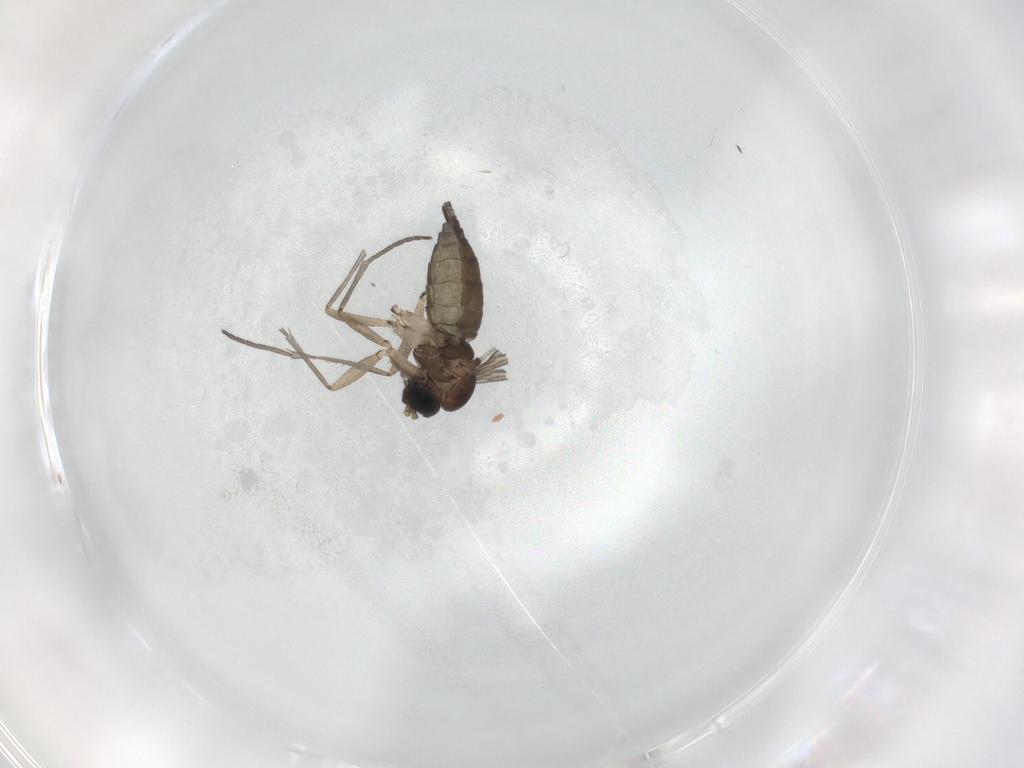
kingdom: Animalia
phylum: Arthropoda
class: Insecta
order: Diptera
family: Sciaridae
